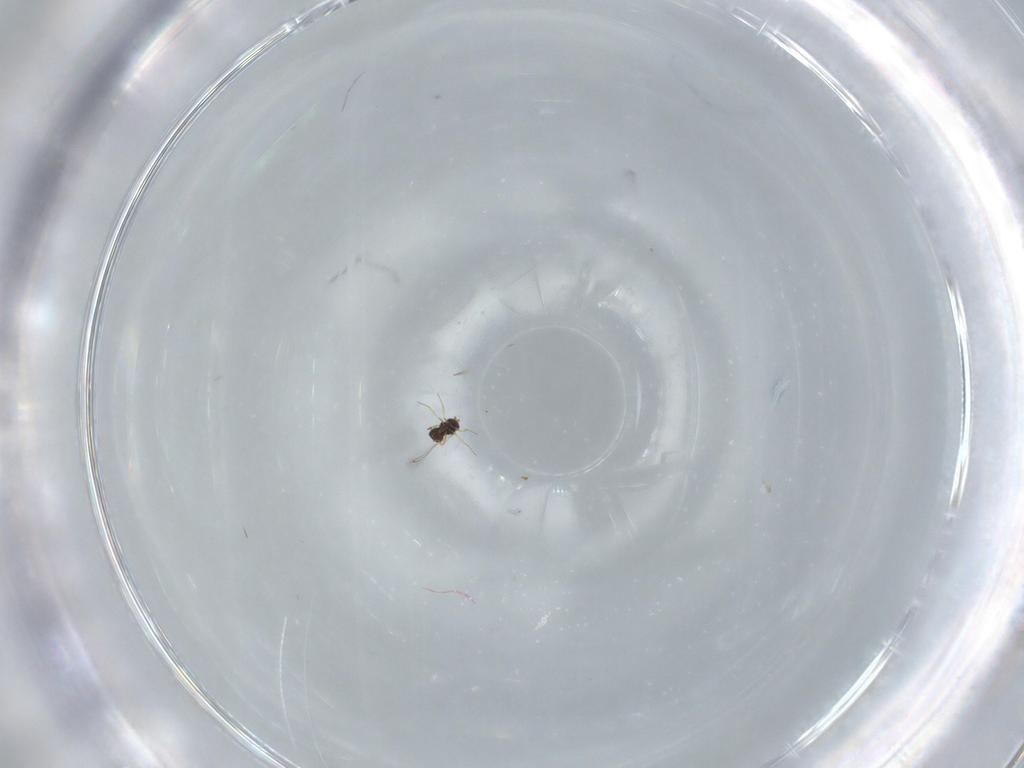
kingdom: Animalia
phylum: Arthropoda
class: Insecta
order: Hymenoptera
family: Mymaridae
